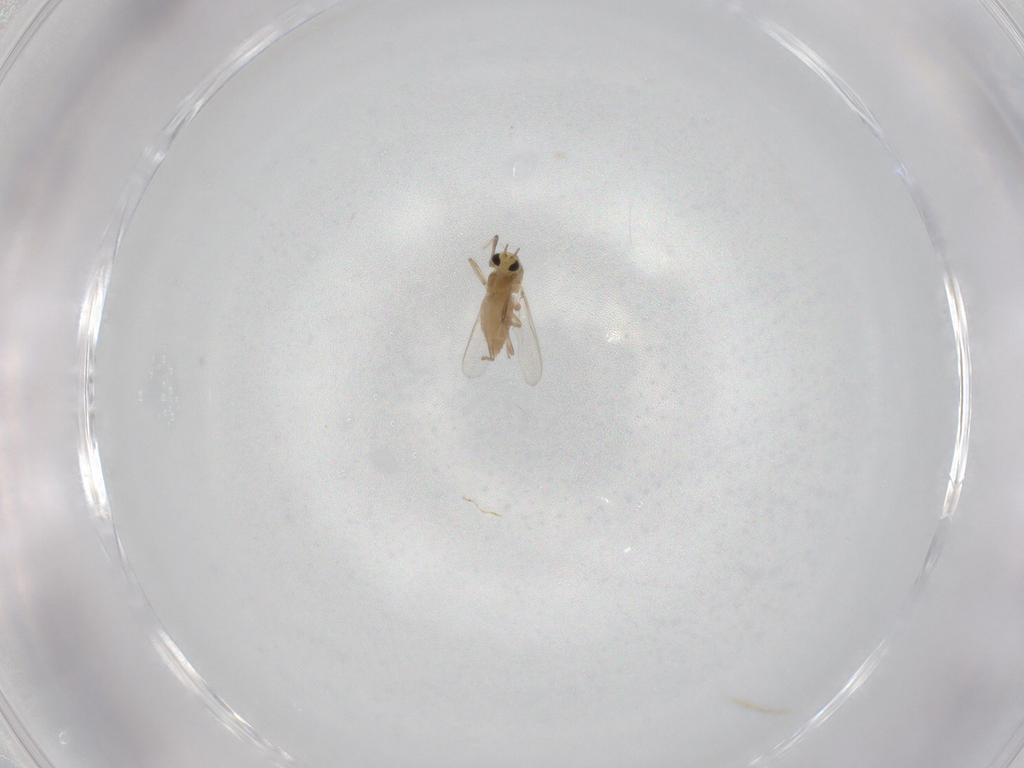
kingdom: Animalia
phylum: Arthropoda
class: Insecta
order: Diptera
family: Chironomidae
